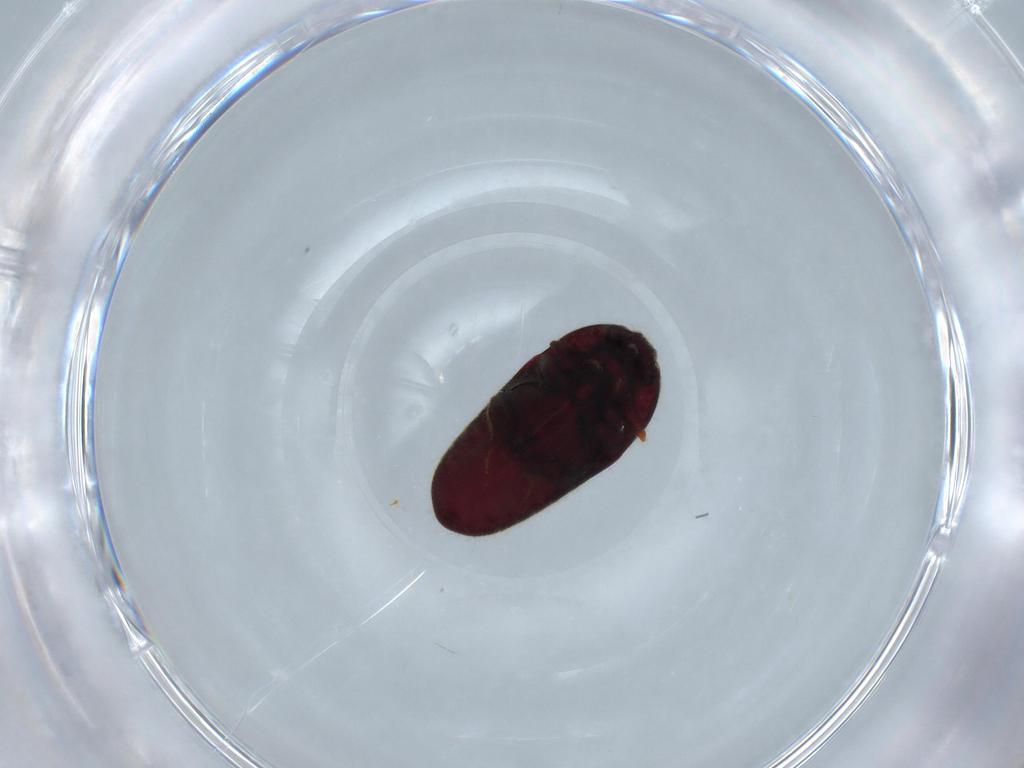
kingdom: Animalia
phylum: Arthropoda
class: Insecta
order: Coleoptera
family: Throscidae
